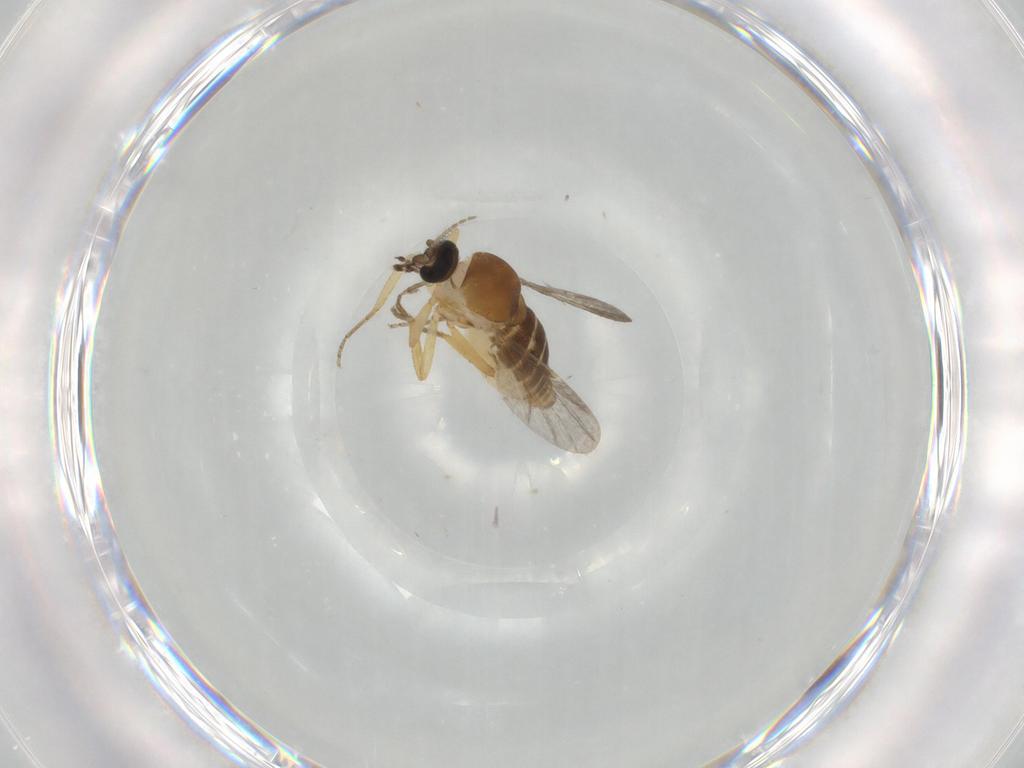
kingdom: Animalia
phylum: Arthropoda
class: Insecta
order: Diptera
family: Ceratopogonidae
